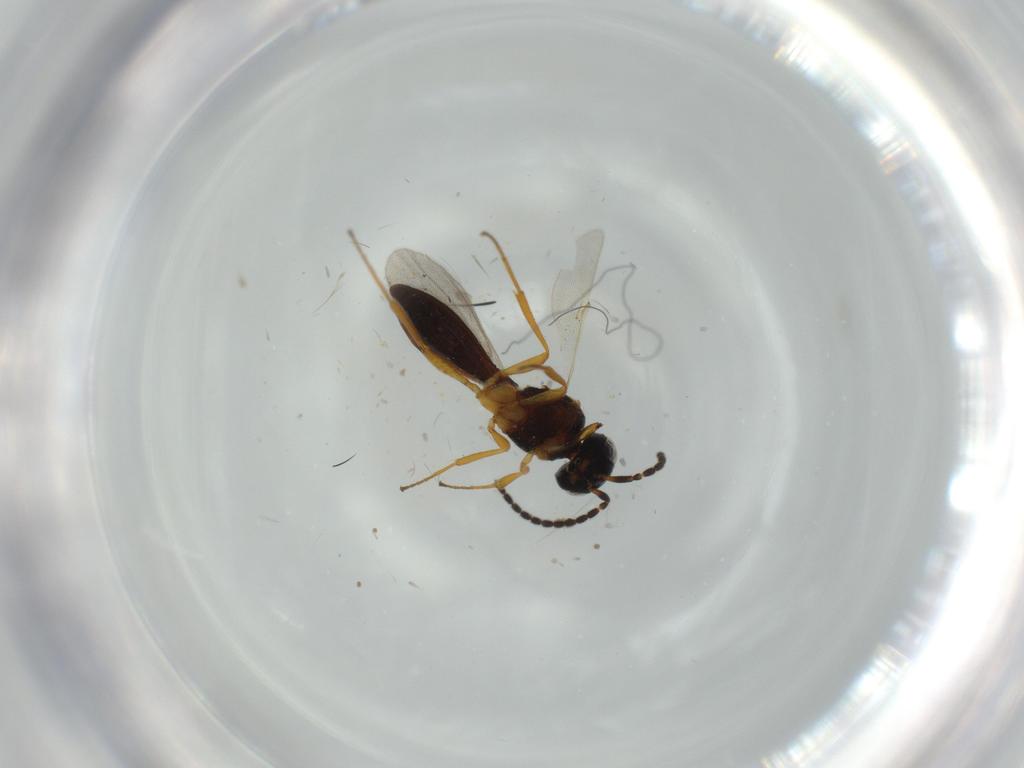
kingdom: Animalia
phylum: Arthropoda
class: Insecta
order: Hymenoptera
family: Formicidae
